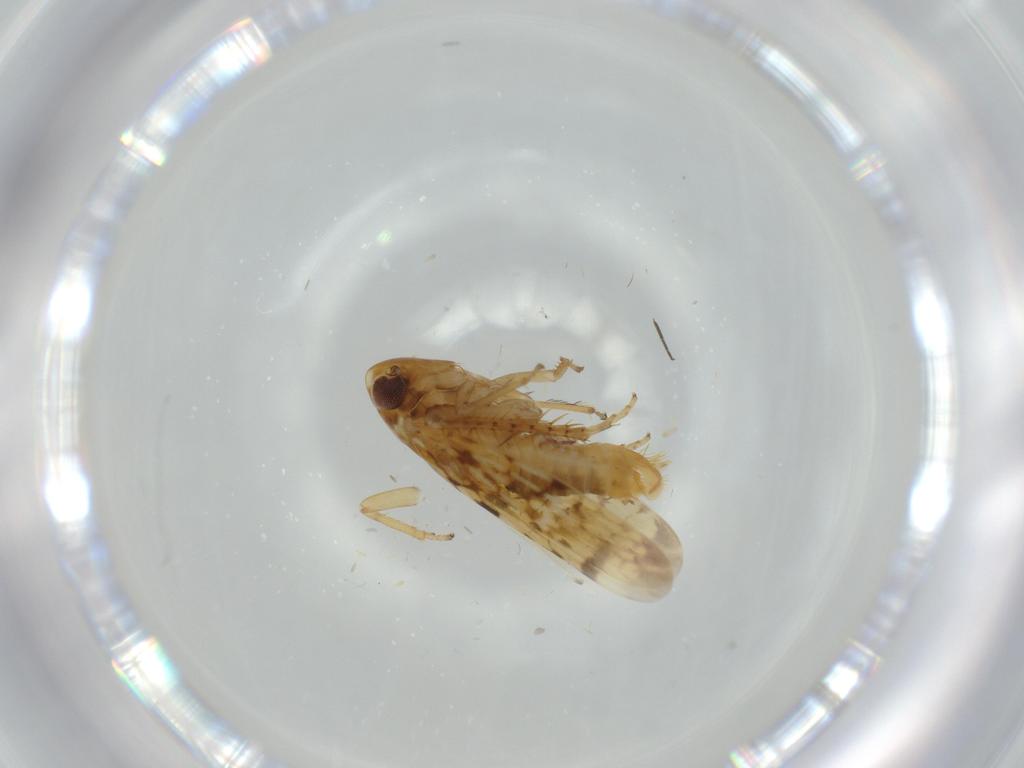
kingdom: Animalia
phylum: Arthropoda
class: Insecta
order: Hemiptera
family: Cicadellidae
